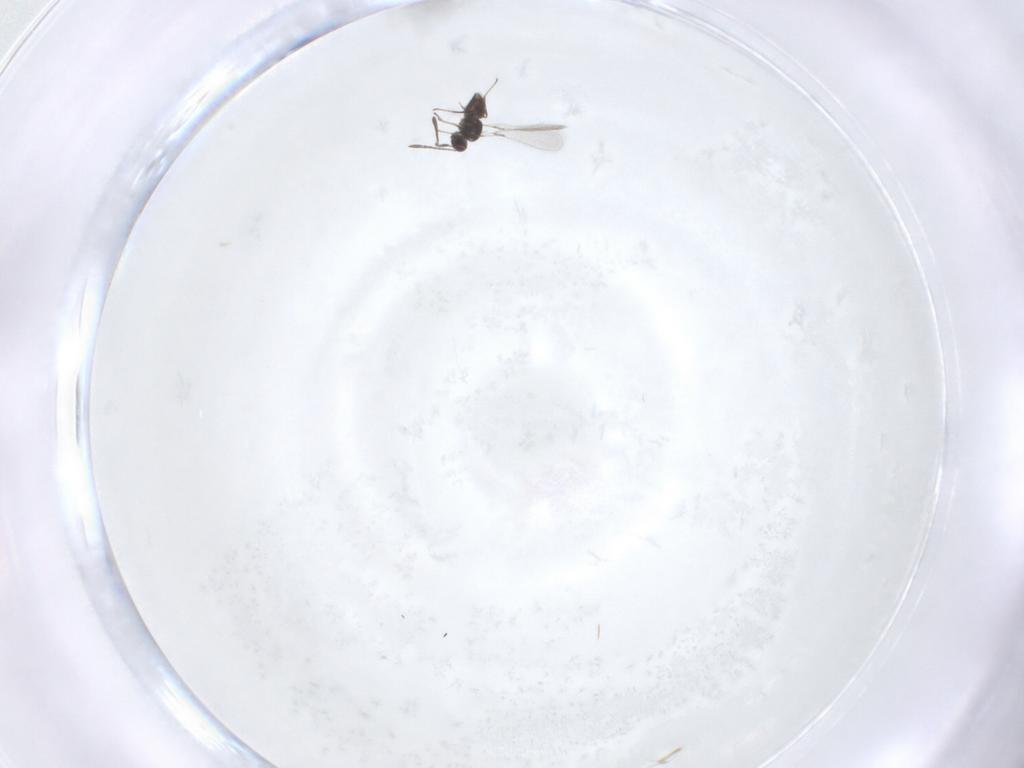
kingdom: Animalia
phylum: Arthropoda
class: Insecta
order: Hymenoptera
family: Mymaridae
